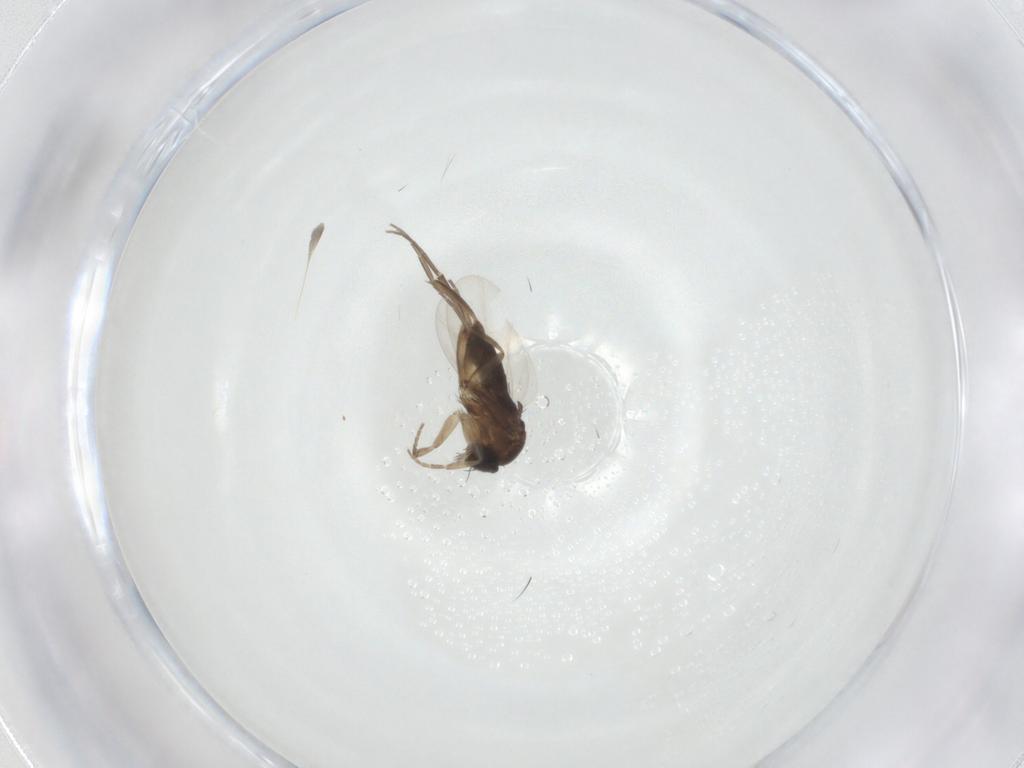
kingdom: Animalia
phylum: Arthropoda
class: Insecta
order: Diptera
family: Phoridae
